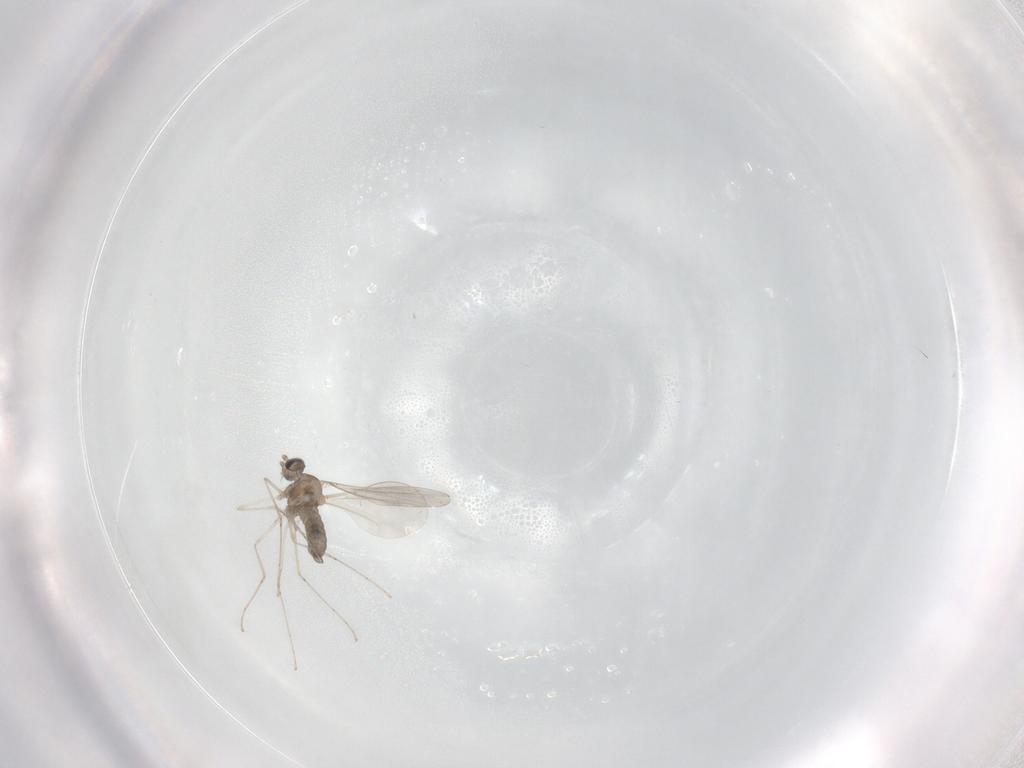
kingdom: Animalia
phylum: Arthropoda
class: Insecta
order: Diptera
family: Cecidomyiidae
